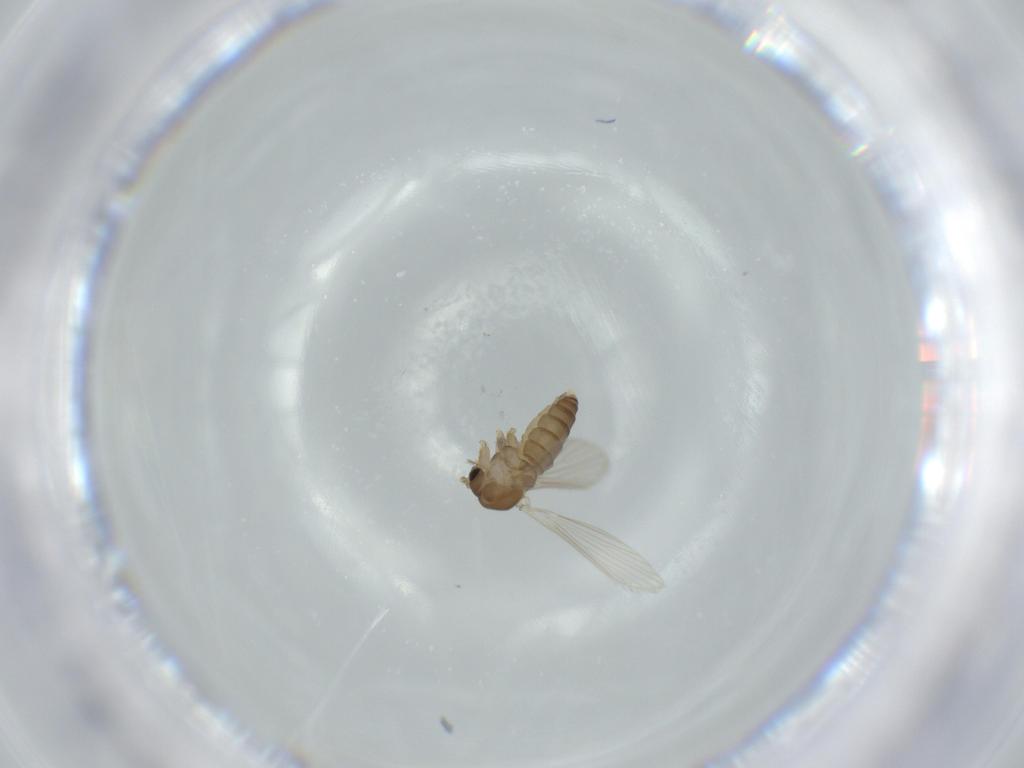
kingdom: Animalia
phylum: Arthropoda
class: Insecta
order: Diptera
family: Psychodidae
